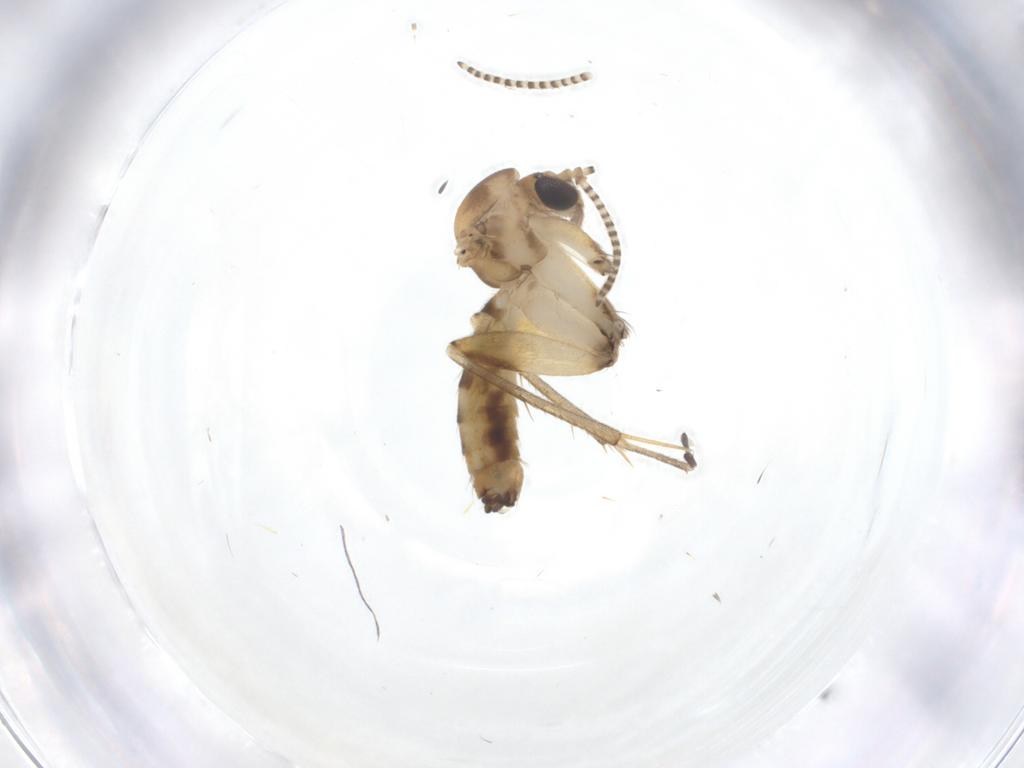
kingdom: Animalia
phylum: Arthropoda
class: Insecta
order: Diptera
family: Mycetophilidae
